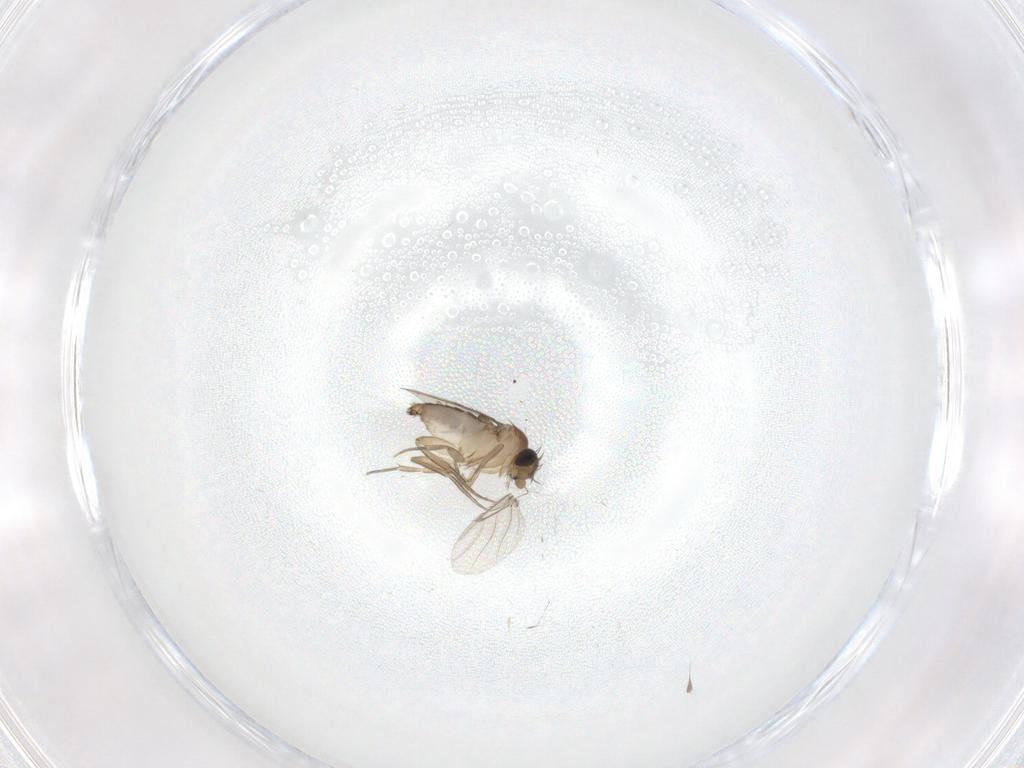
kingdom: Animalia
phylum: Arthropoda
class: Insecta
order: Diptera
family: Phoridae
